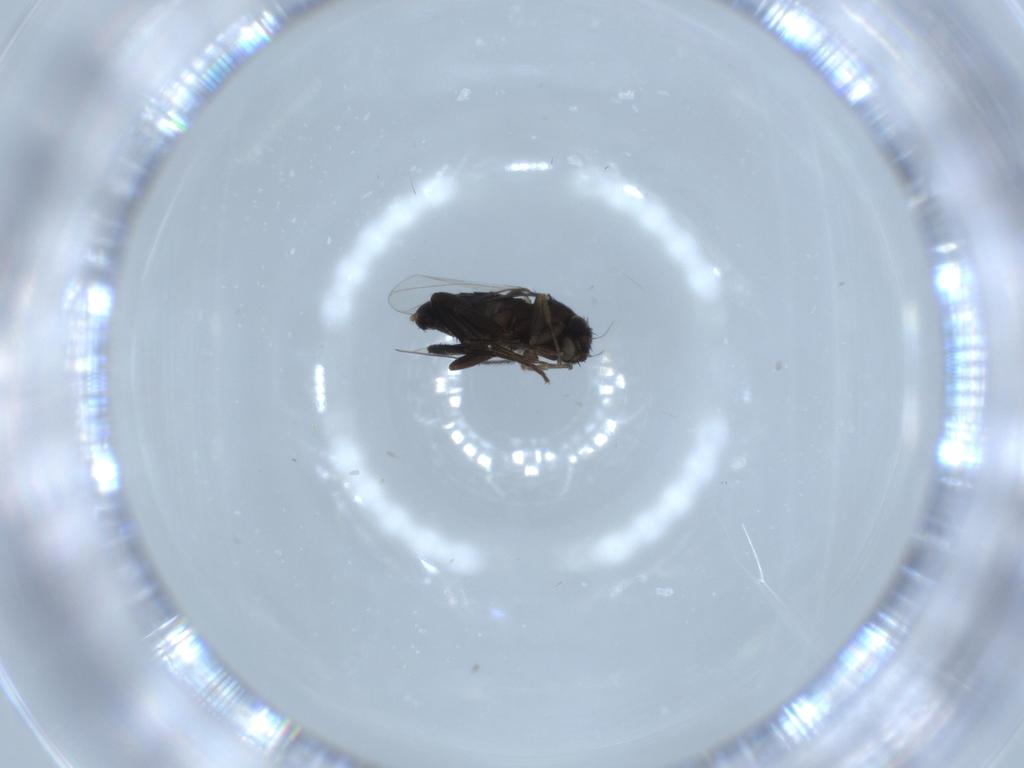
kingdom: Animalia
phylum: Arthropoda
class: Insecta
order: Diptera
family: Phoridae
